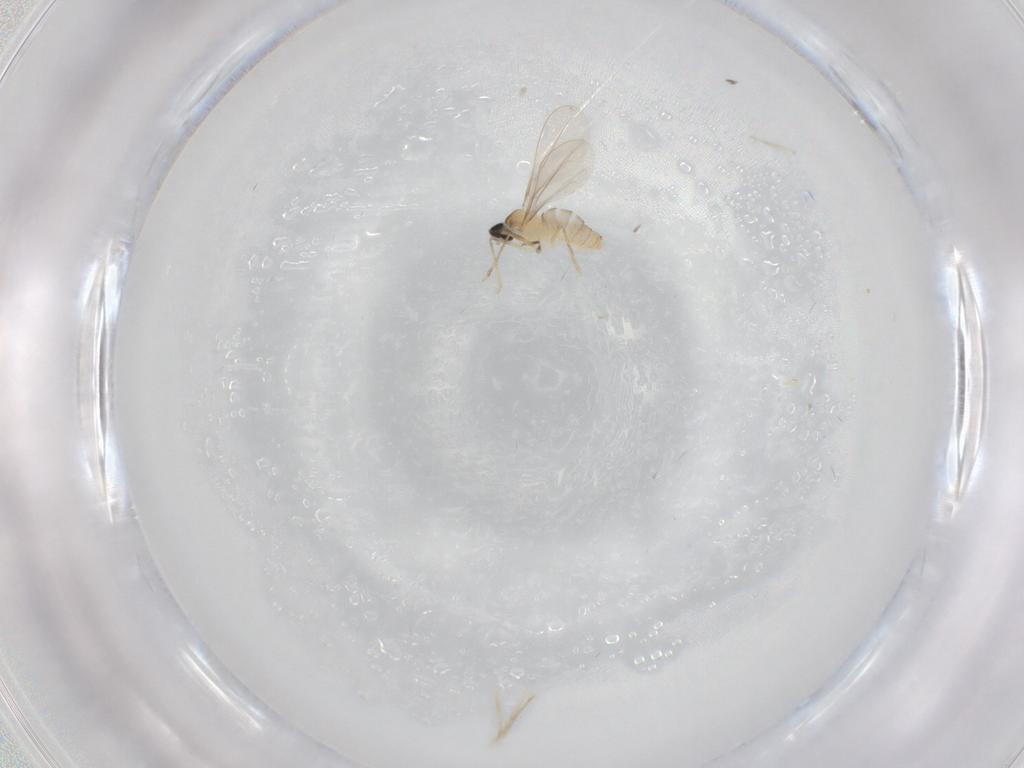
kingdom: Animalia
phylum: Arthropoda
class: Insecta
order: Diptera
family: Cecidomyiidae
